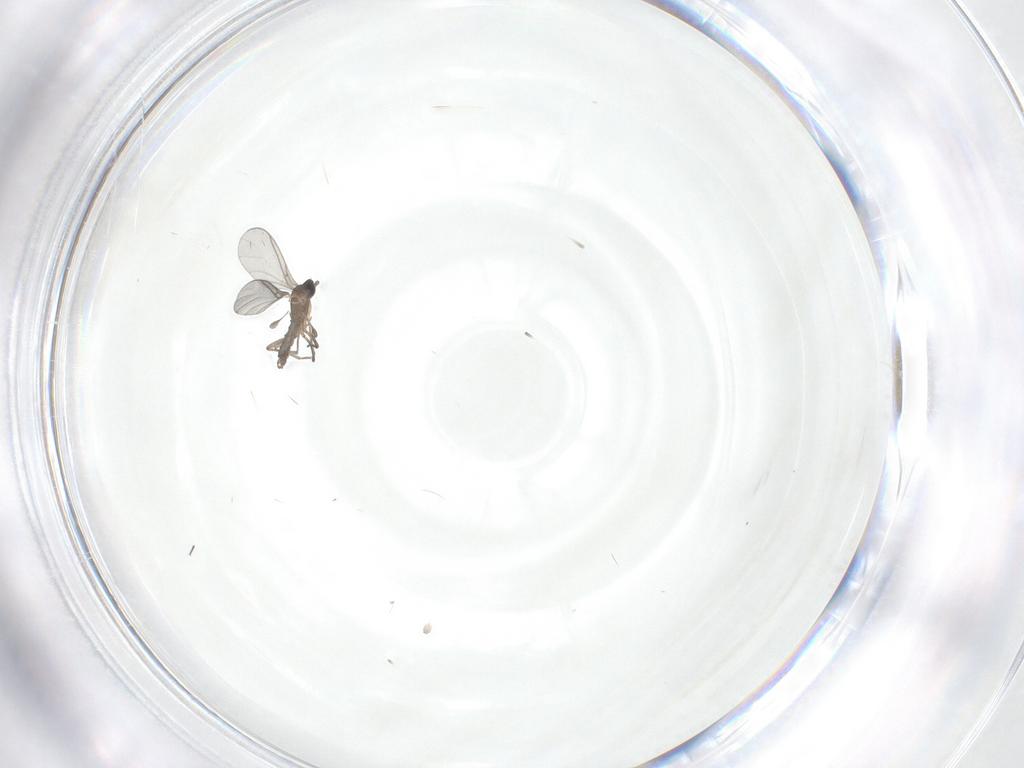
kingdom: Animalia
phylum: Arthropoda
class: Insecta
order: Diptera
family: Sciaridae
